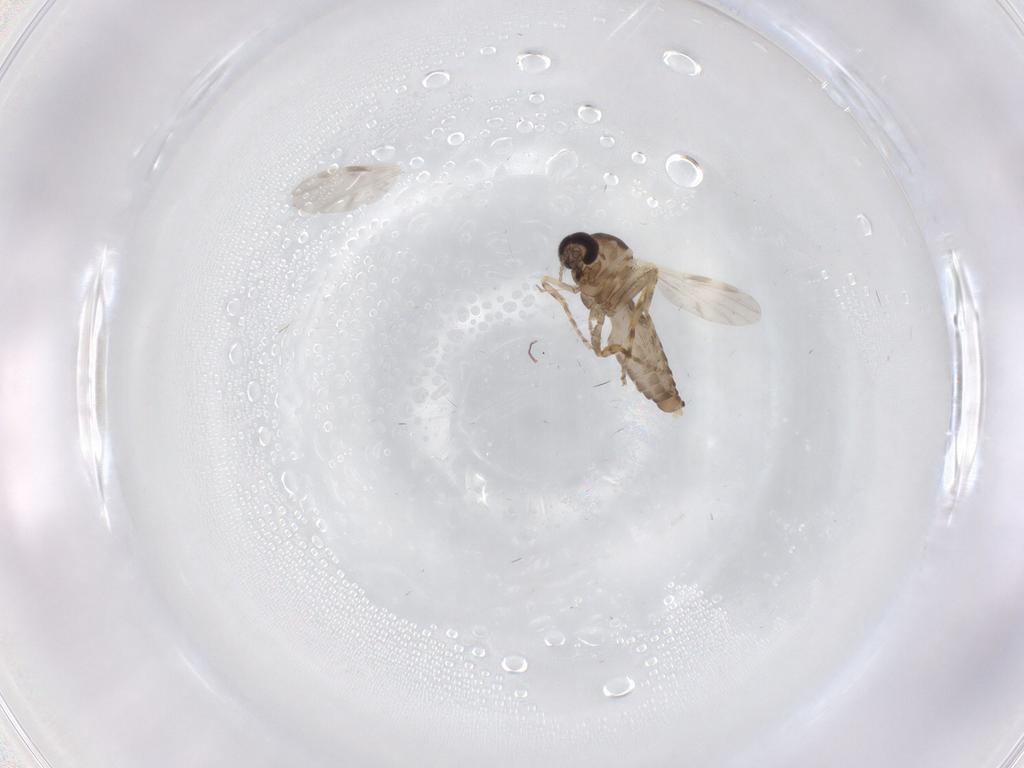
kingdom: Animalia
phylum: Arthropoda
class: Insecta
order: Diptera
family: Ceratopogonidae
